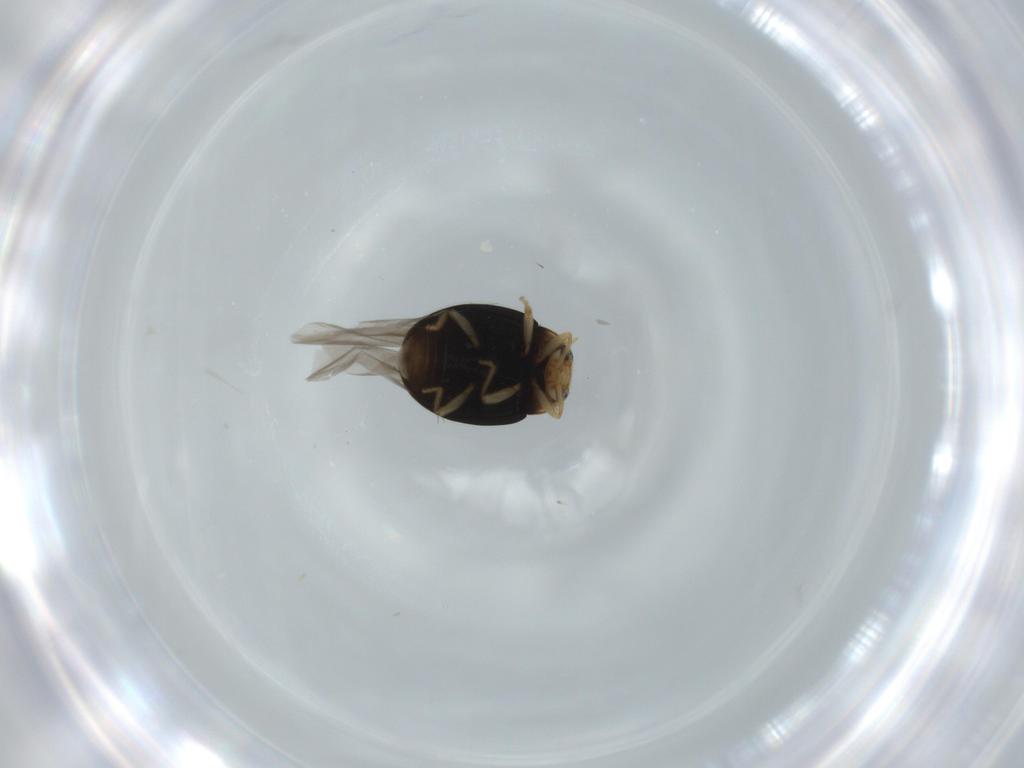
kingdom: Animalia
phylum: Arthropoda
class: Insecta
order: Coleoptera
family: Coccinellidae
